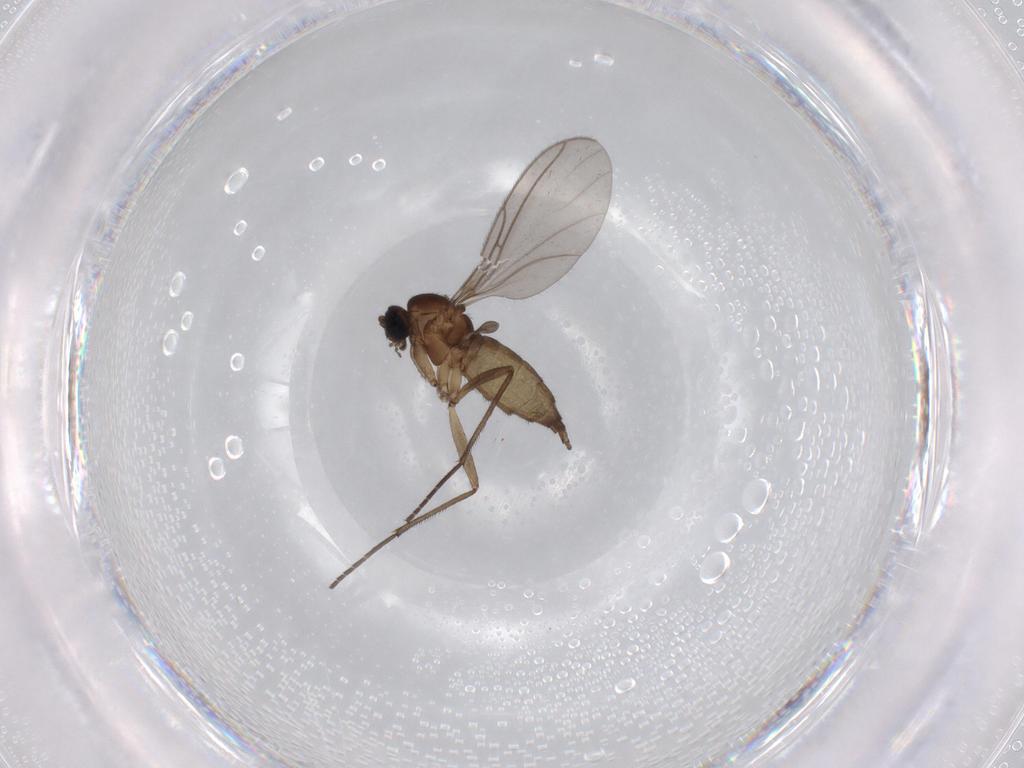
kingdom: Animalia
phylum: Arthropoda
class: Insecta
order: Diptera
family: Sciaridae
